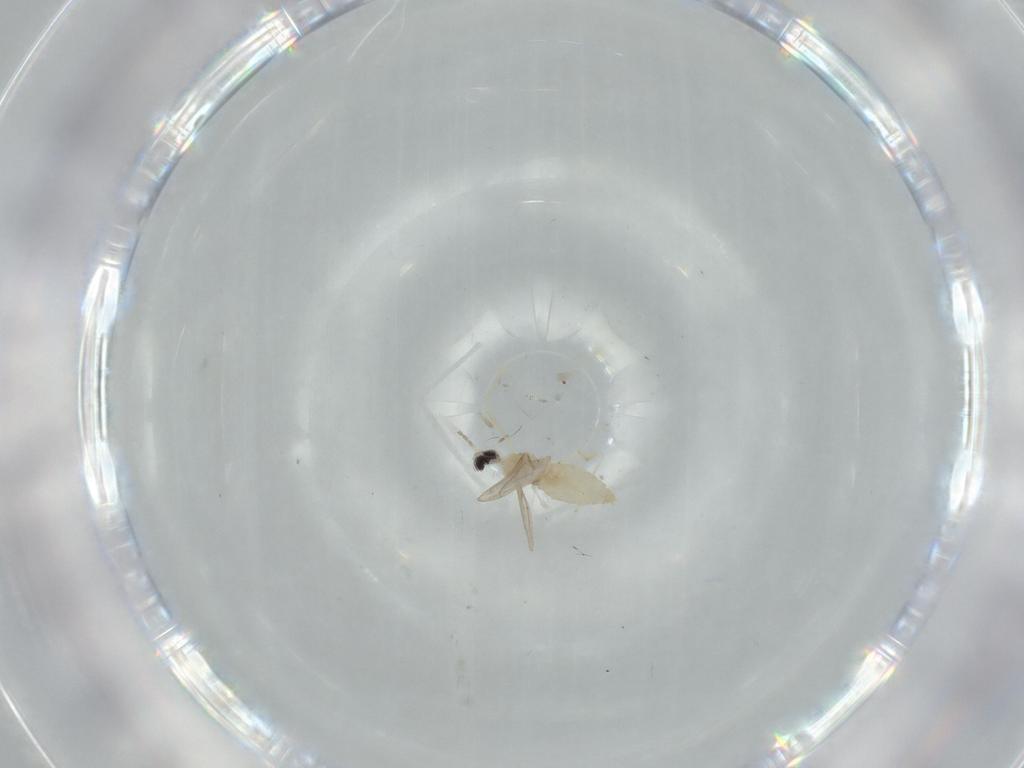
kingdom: Animalia
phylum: Arthropoda
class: Insecta
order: Diptera
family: Cecidomyiidae
